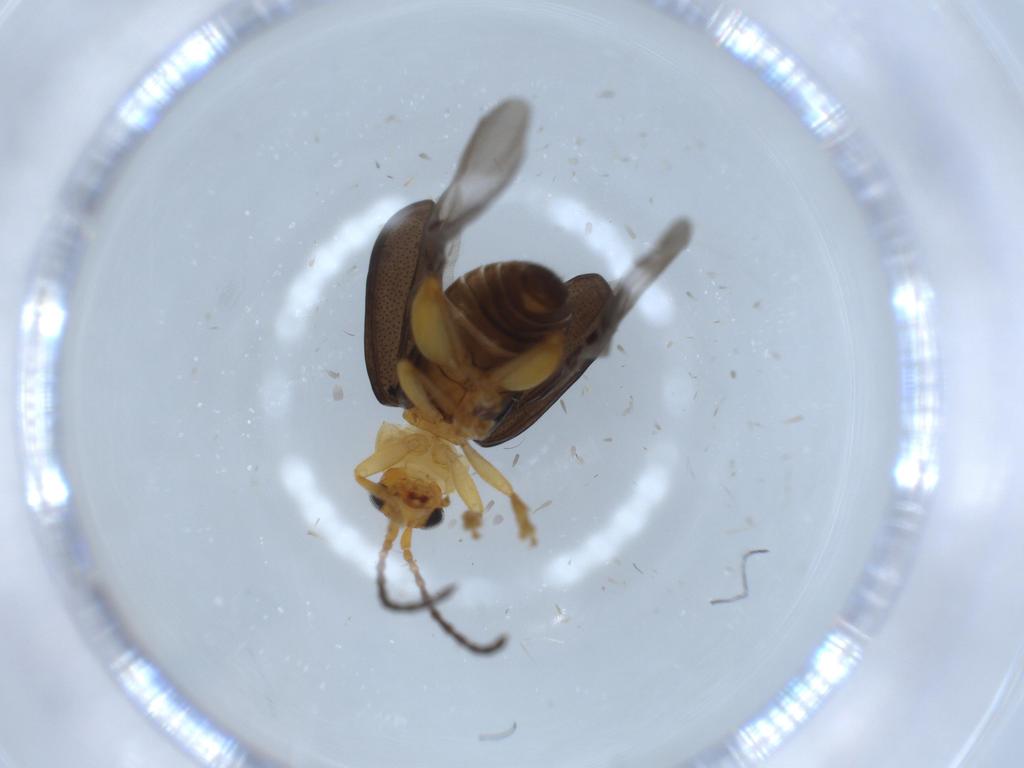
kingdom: Animalia
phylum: Arthropoda
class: Insecta
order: Coleoptera
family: Chrysomelidae
